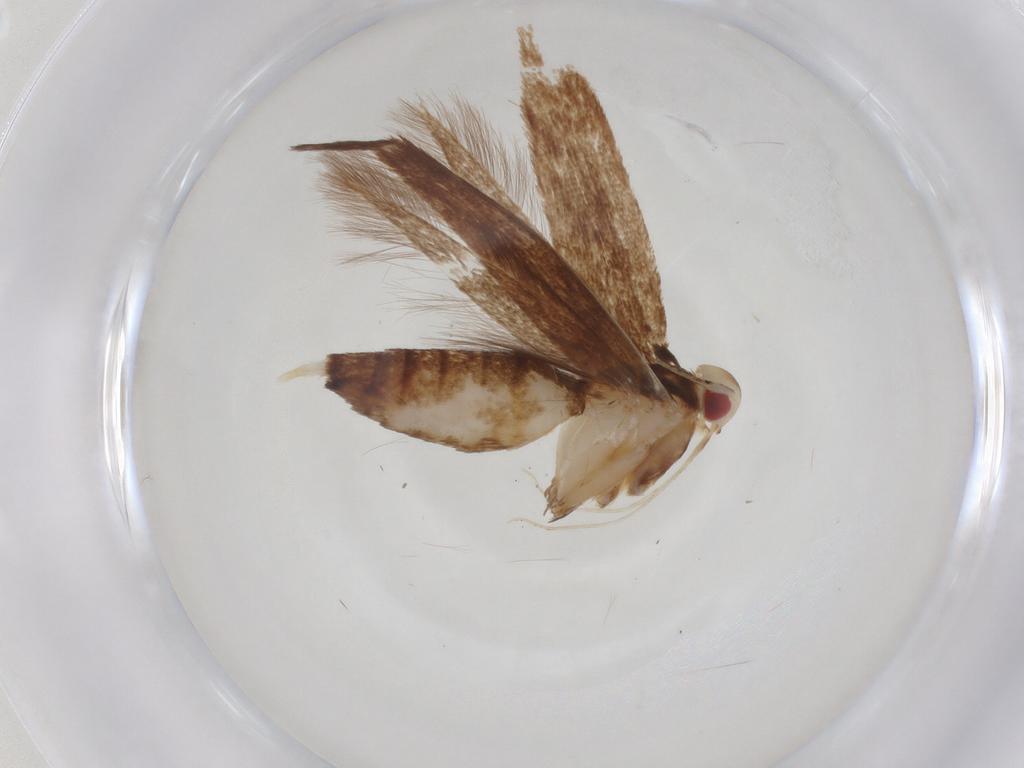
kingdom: Animalia
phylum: Arthropoda
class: Insecta
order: Lepidoptera
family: Cosmopterigidae
